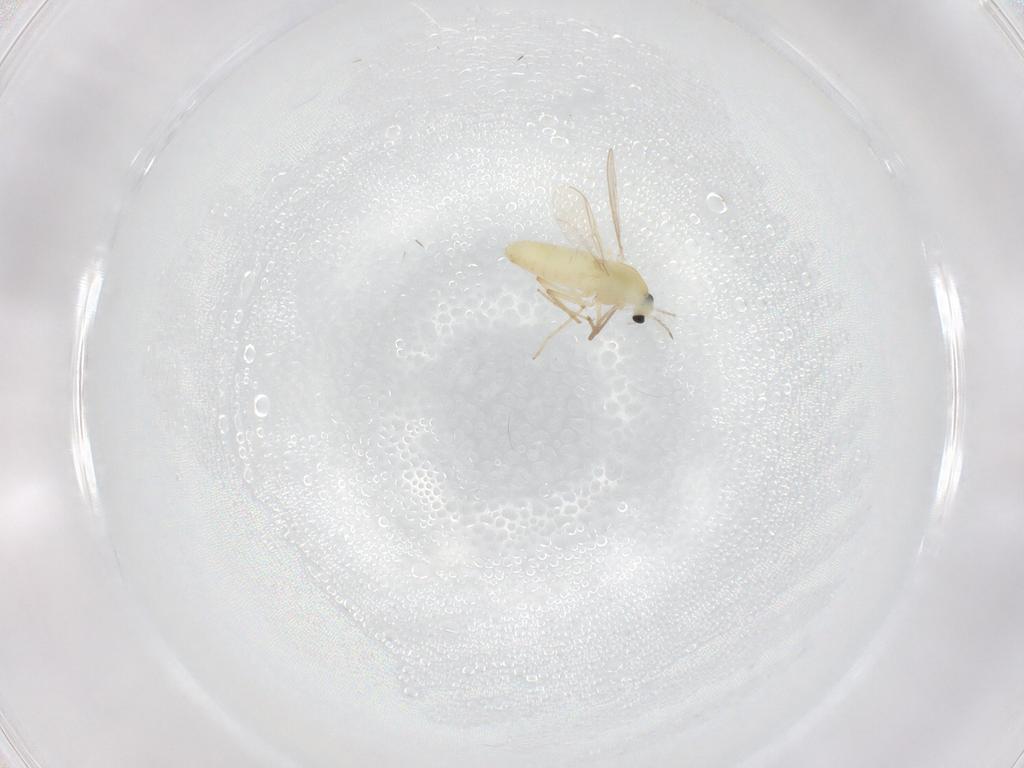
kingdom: Animalia
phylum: Arthropoda
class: Insecta
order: Diptera
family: Chironomidae
